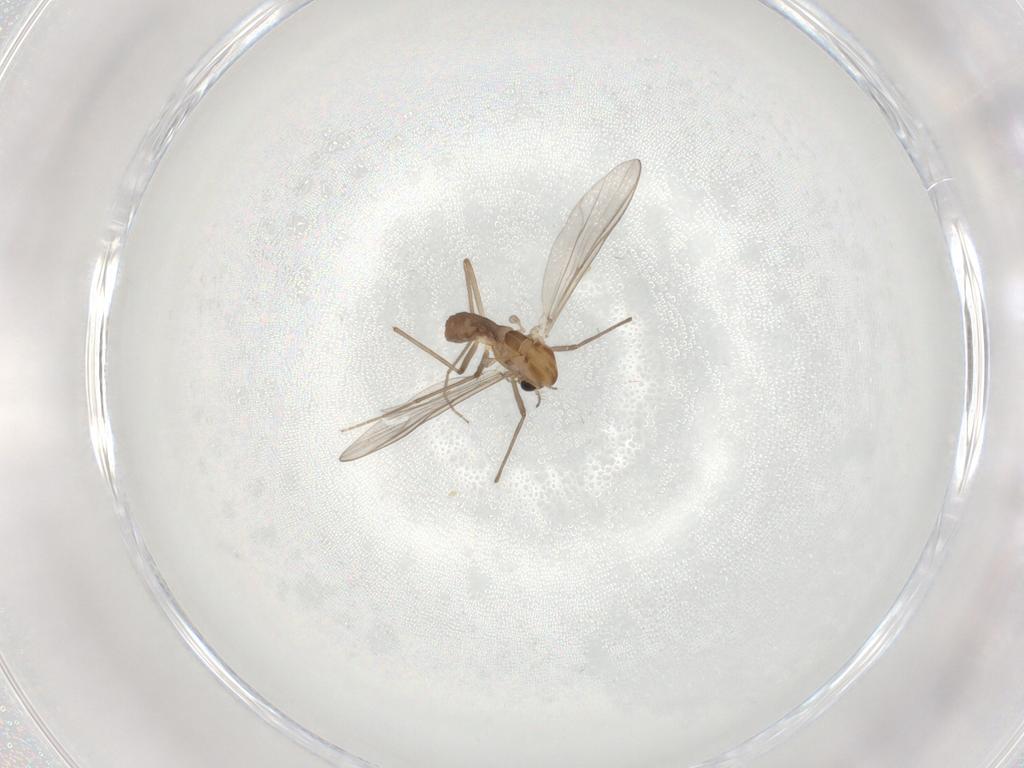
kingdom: Animalia
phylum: Arthropoda
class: Insecta
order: Diptera
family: Chironomidae
